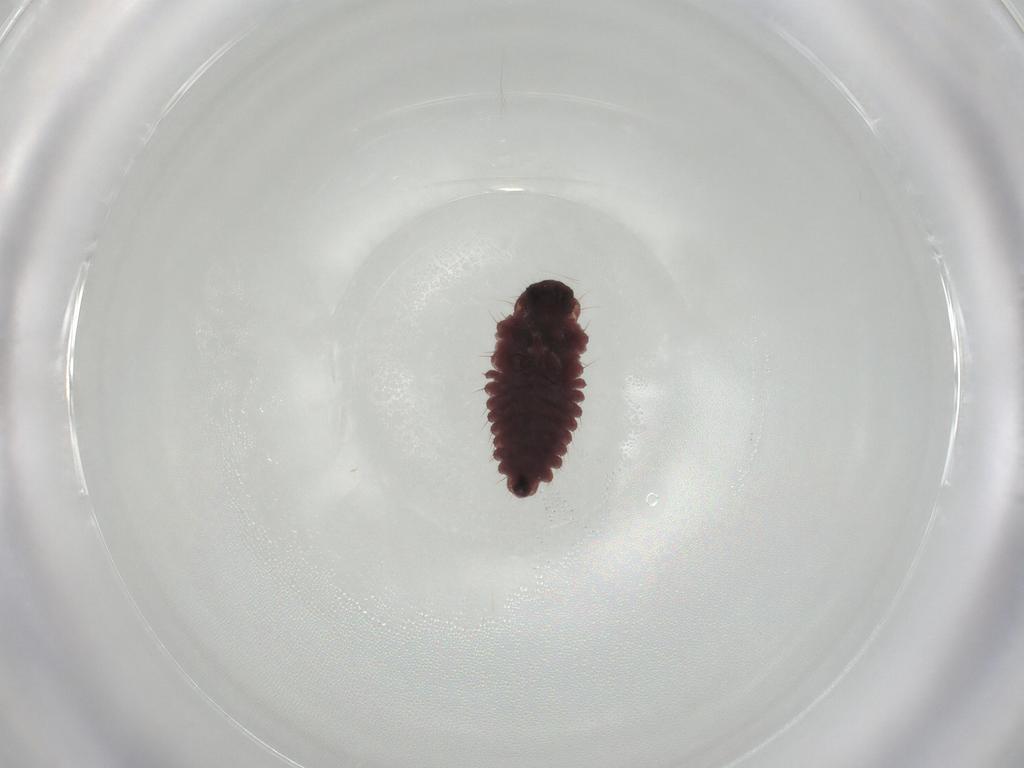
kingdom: Animalia
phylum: Arthropoda
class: Insecta
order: Coleoptera
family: Coccinellidae
